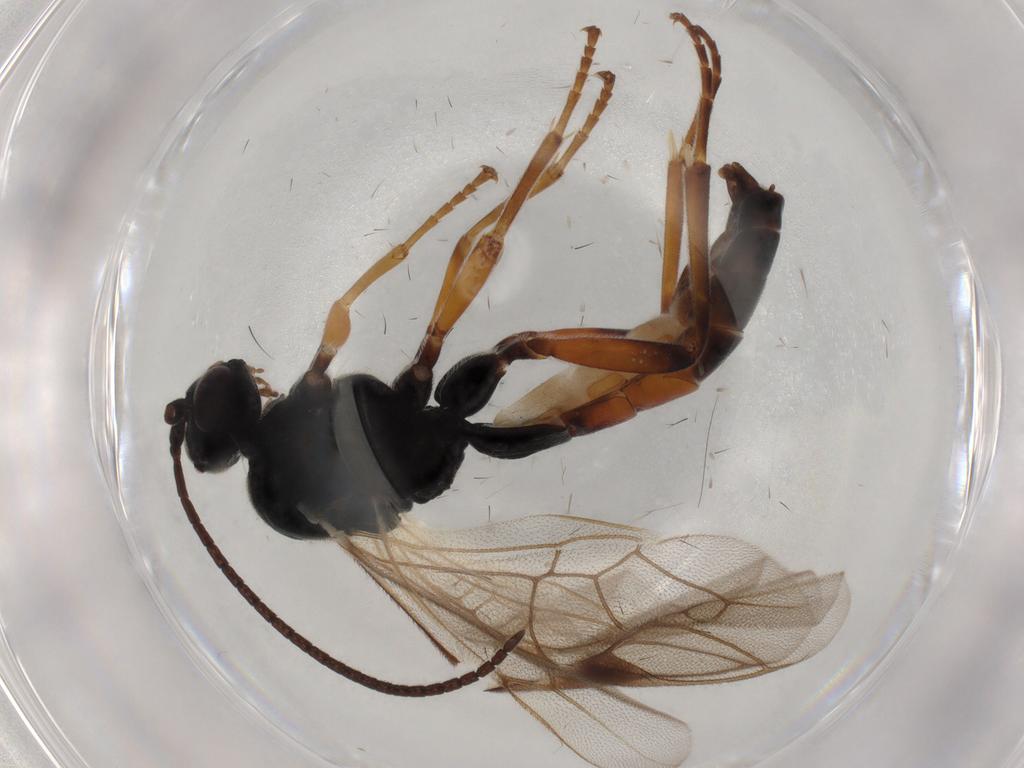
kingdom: Animalia
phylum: Arthropoda
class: Insecta
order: Hymenoptera
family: Ichneumonidae
